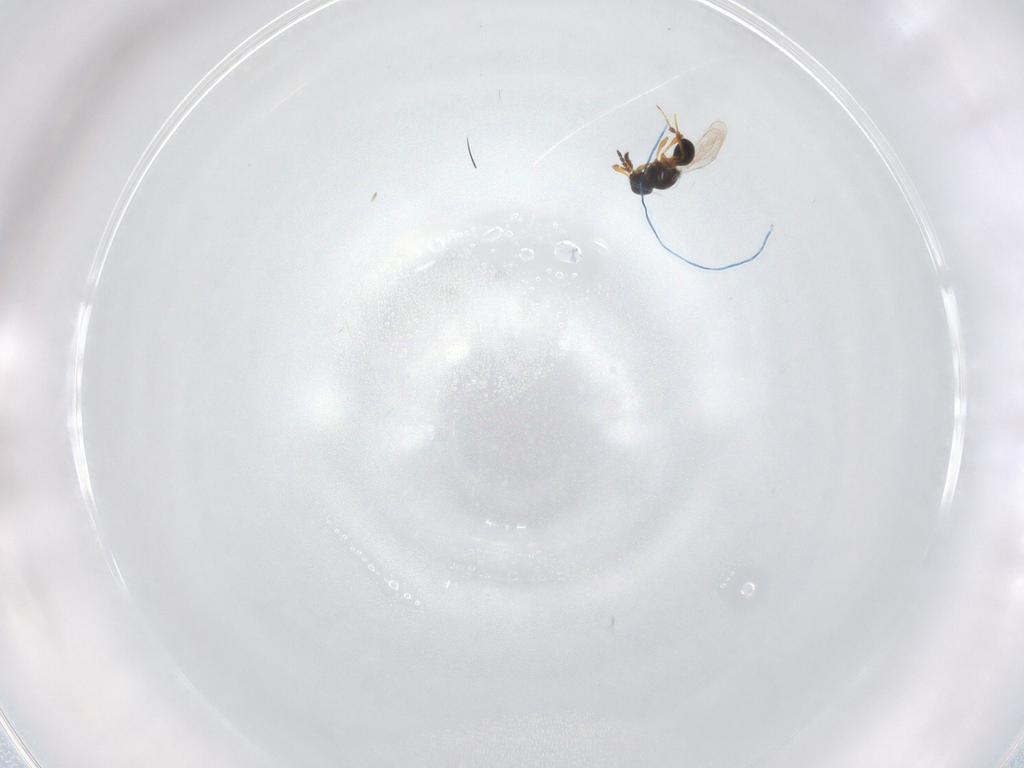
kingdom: Animalia
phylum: Arthropoda
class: Insecta
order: Hymenoptera
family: Platygastridae
